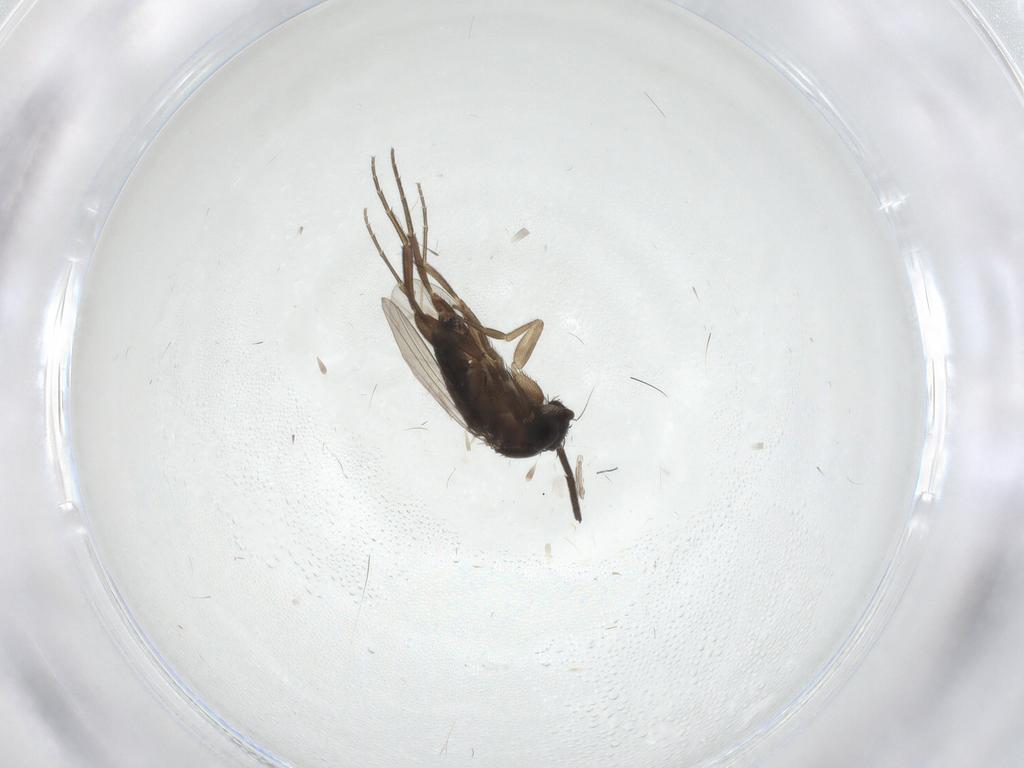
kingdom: Animalia
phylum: Arthropoda
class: Insecta
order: Diptera
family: Phoridae
